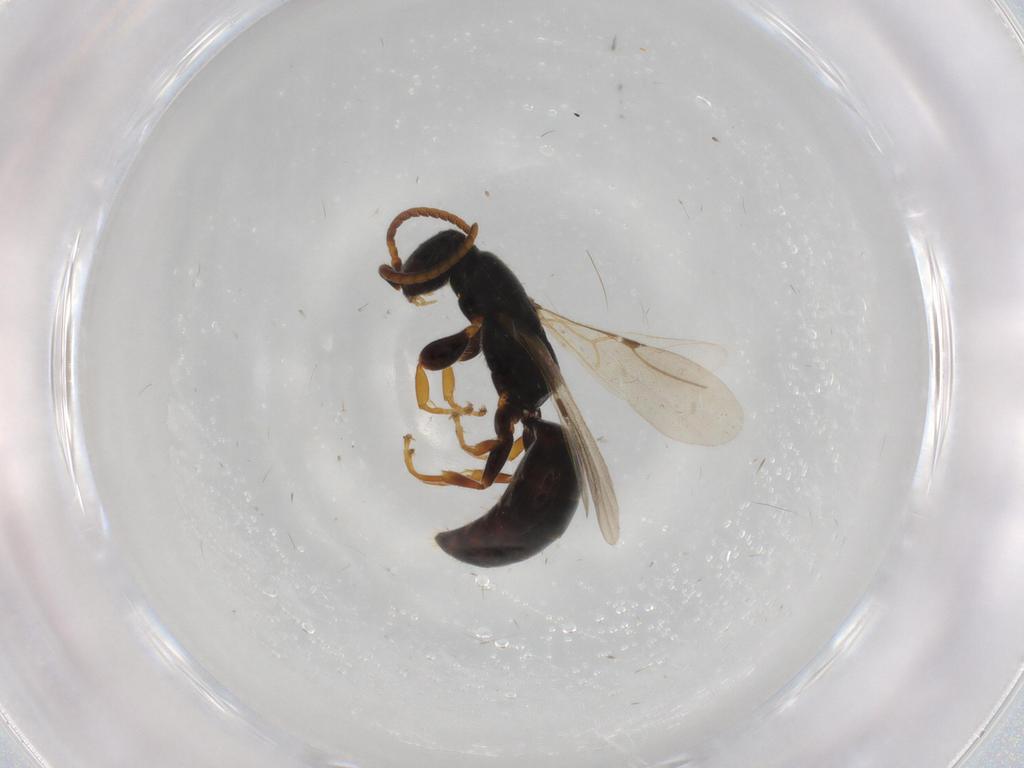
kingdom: Animalia
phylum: Arthropoda
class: Insecta
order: Hymenoptera
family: Bethylidae
